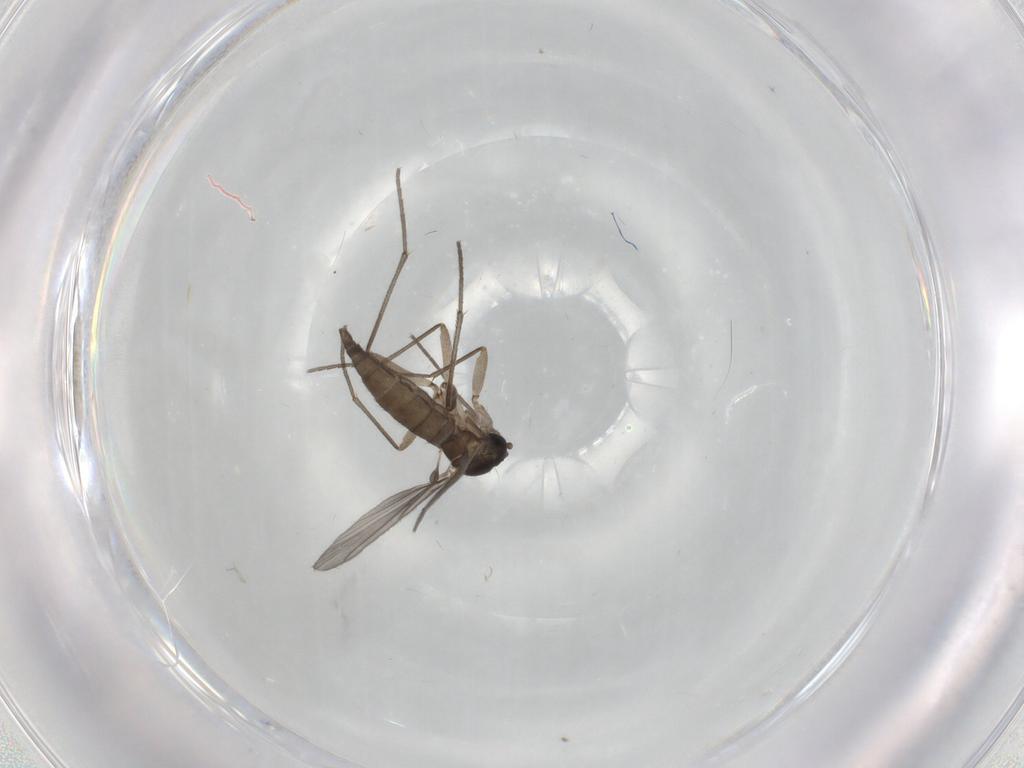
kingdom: Animalia
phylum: Arthropoda
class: Insecta
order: Diptera
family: Sciaridae
